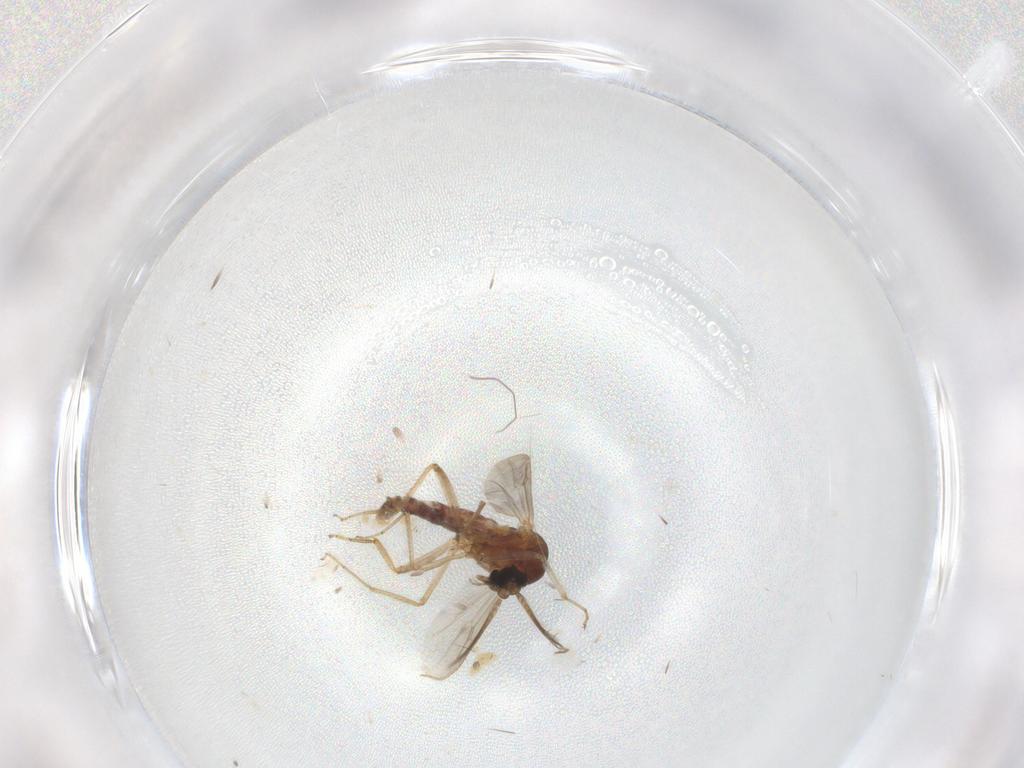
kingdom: Animalia
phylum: Arthropoda
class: Insecta
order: Diptera
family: Ceratopogonidae
